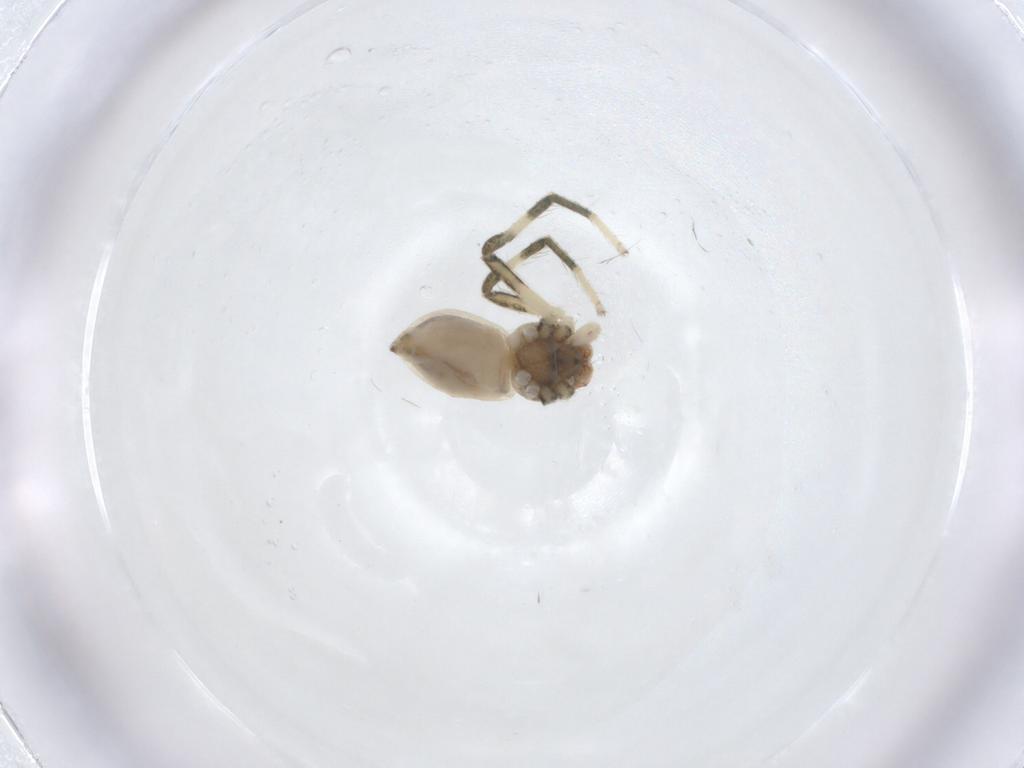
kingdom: Animalia
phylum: Arthropoda
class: Arachnida
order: Araneae
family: Thomisidae
